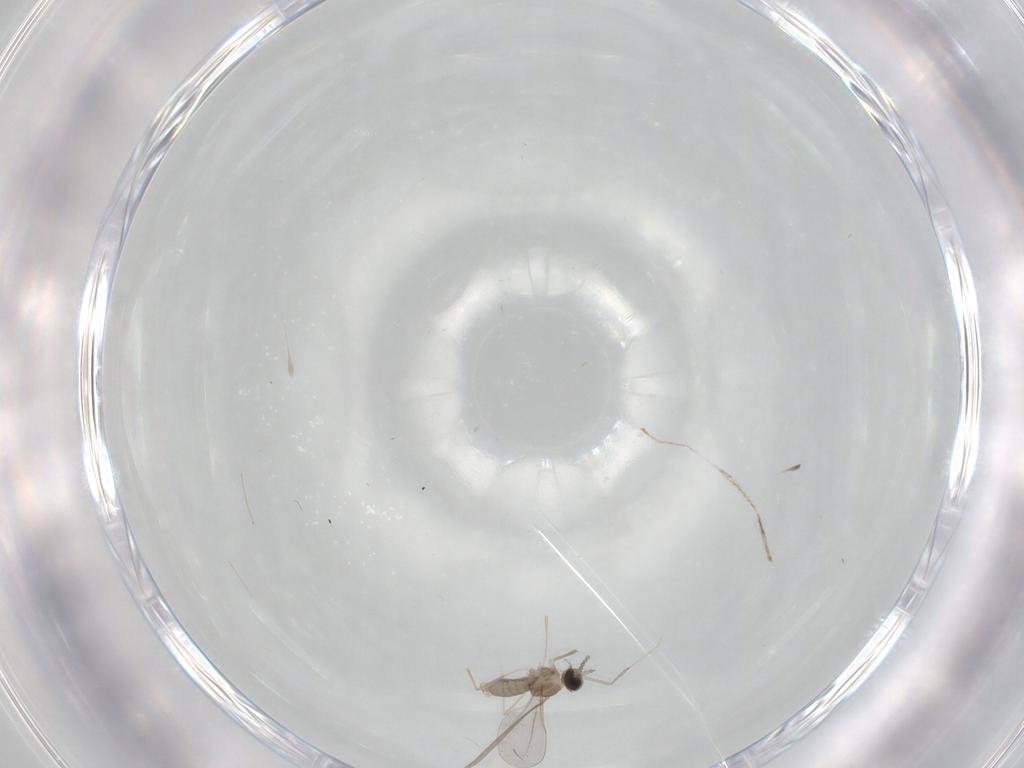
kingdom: Animalia
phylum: Arthropoda
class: Insecta
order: Diptera
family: Cecidomyiidae
